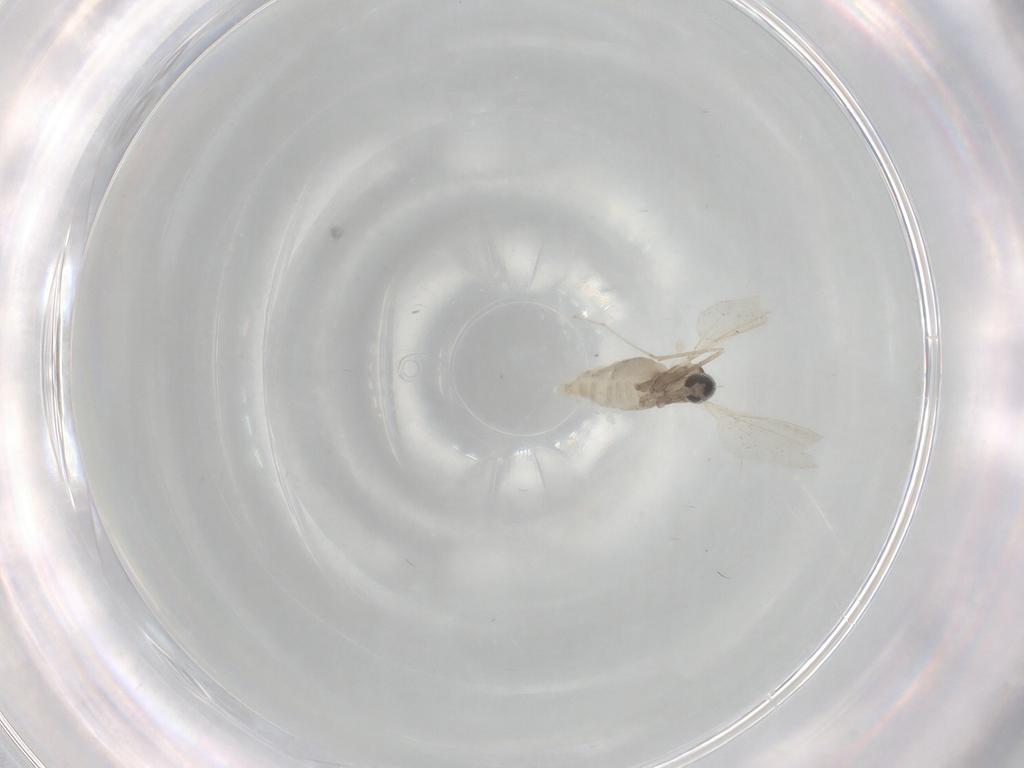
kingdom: Animalia
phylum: Arthropoda
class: Insecta
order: Diptera
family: Cecidomyiidae
